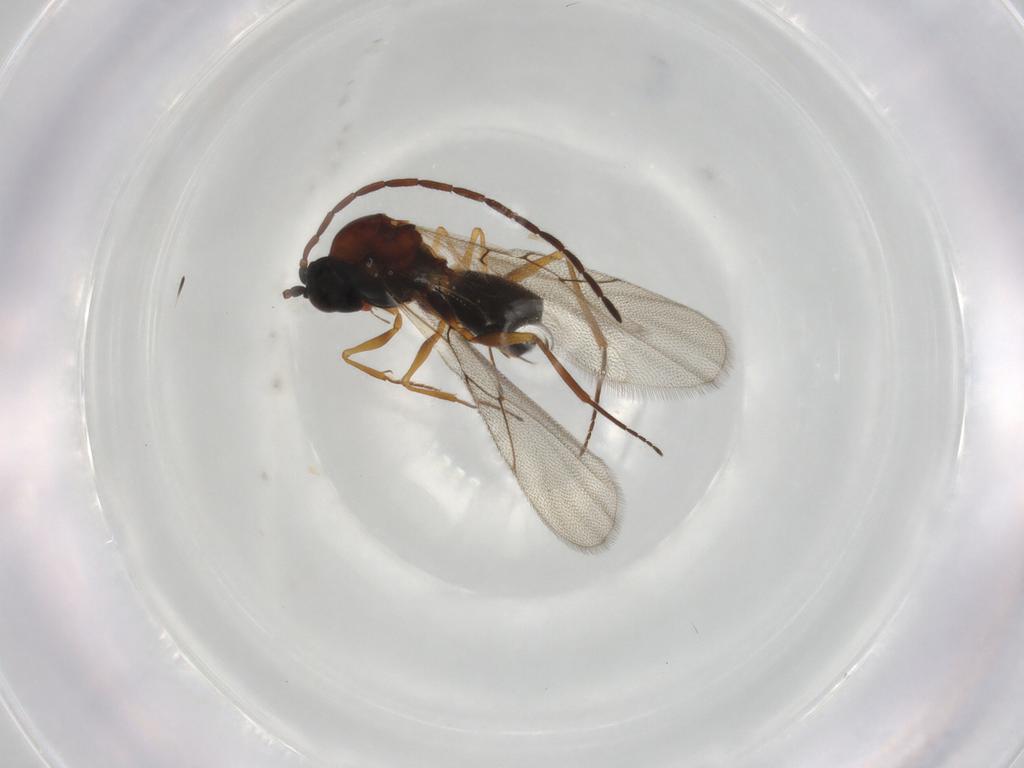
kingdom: Animalia
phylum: Arthropoda
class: Insecta
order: Hymenoptera
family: Figitidae
